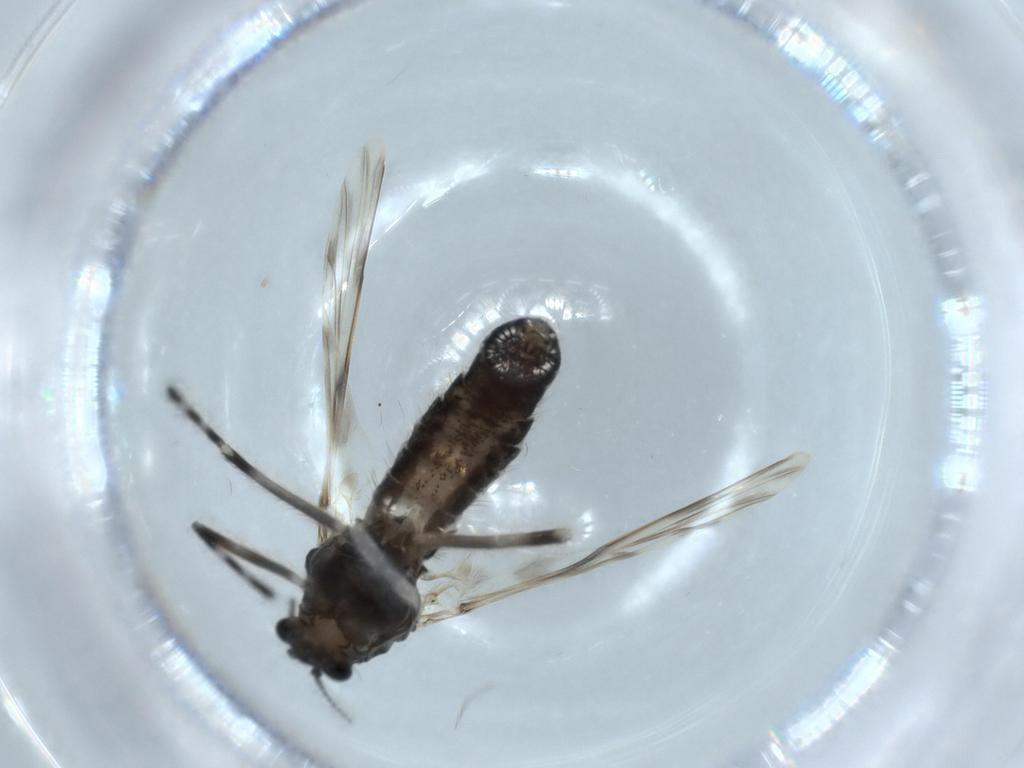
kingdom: Animalia
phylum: Arthropoda
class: Insecta
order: Diptera
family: Chironomidae
